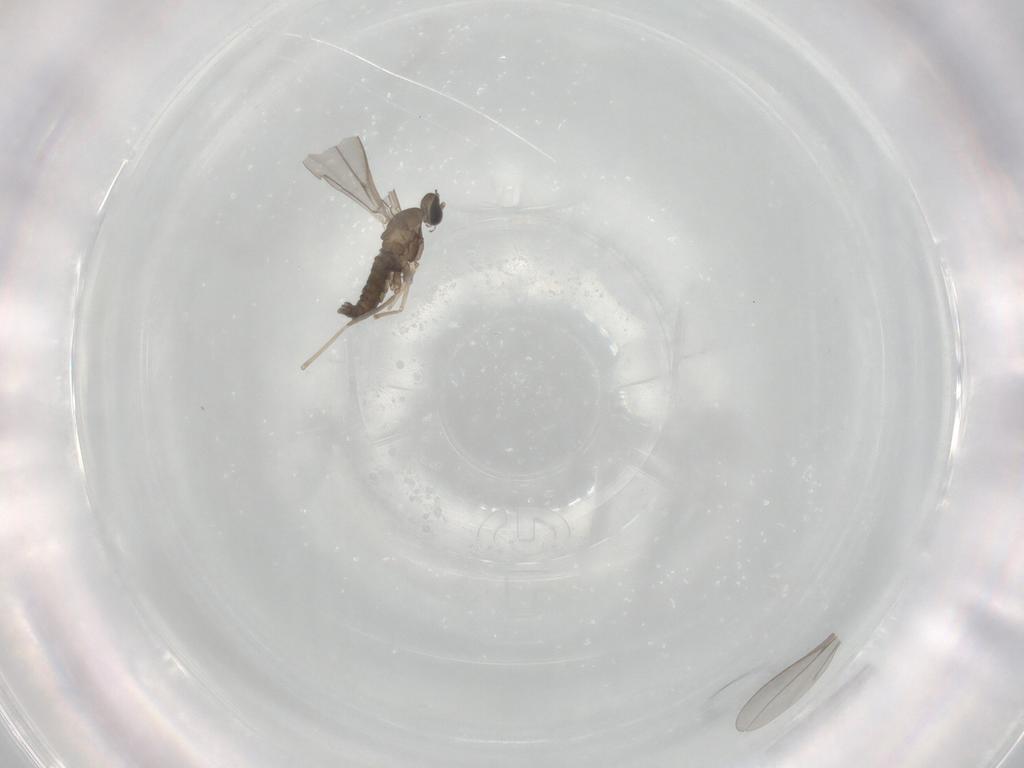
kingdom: Animalia
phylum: Arthropoda
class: Insecta
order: Diptera
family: Cecidomyiidae
